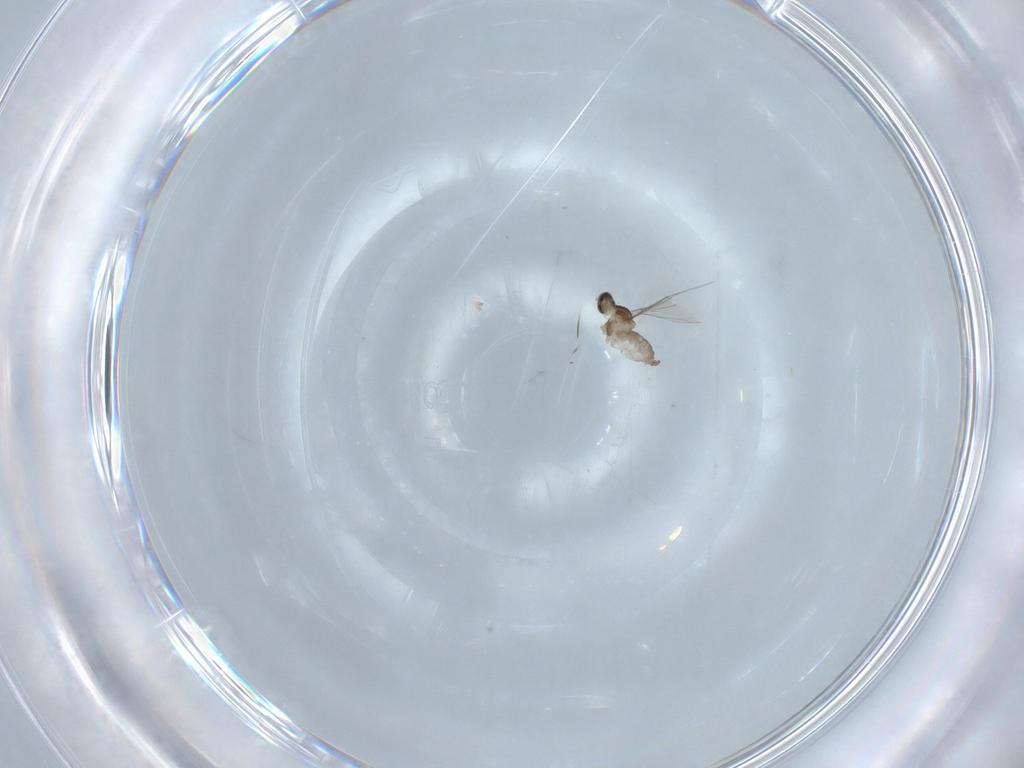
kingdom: Animalia
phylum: Arthropoda
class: Insecta
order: Diptera
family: Cecidomyiidae
